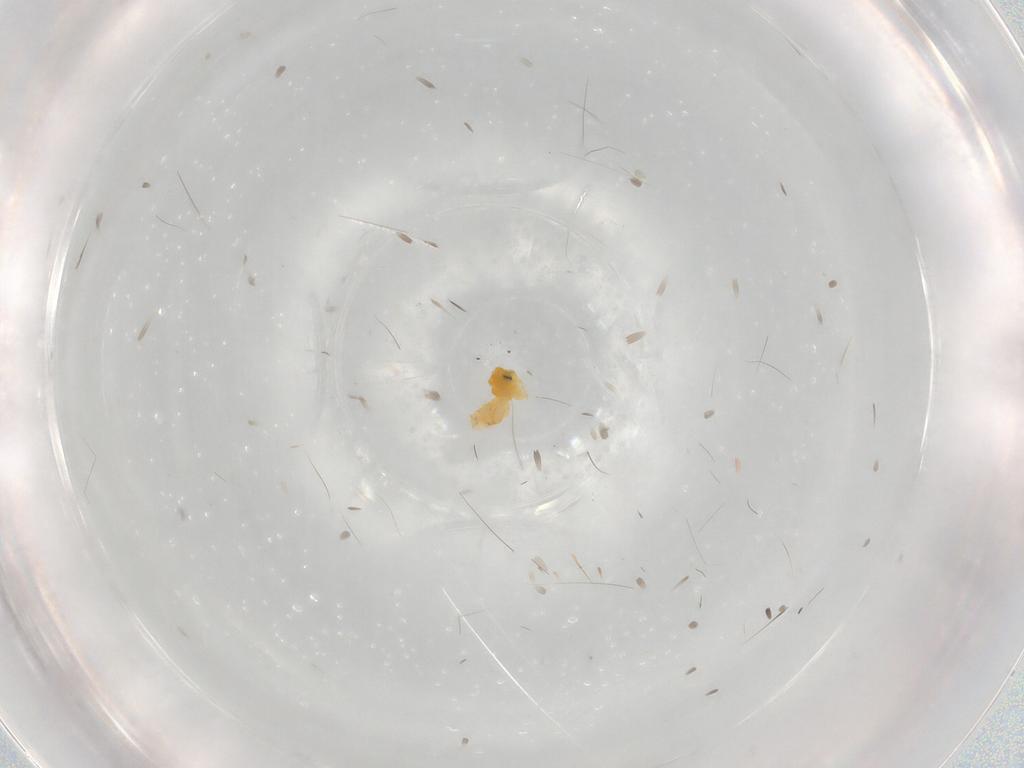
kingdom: Animalia
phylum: Arthropoda
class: Insecta
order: Hemiptera
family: Aleyrodidae
